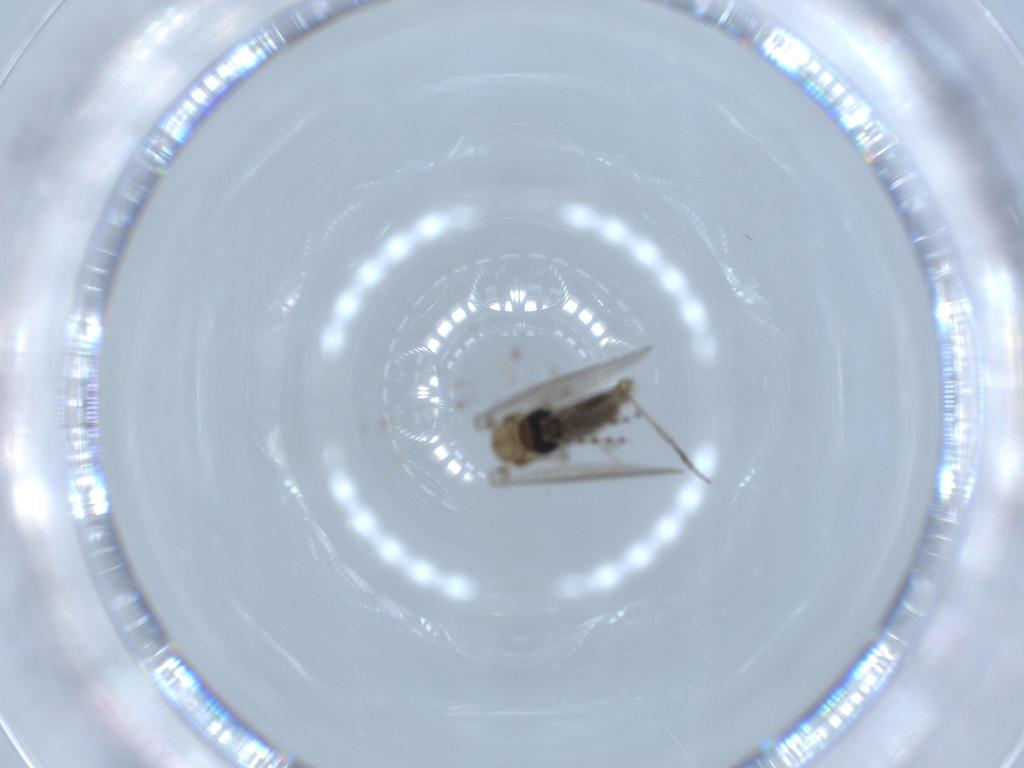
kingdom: Animalia
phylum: Arthropoda
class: Insecta
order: Diptera
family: Psychodidae
